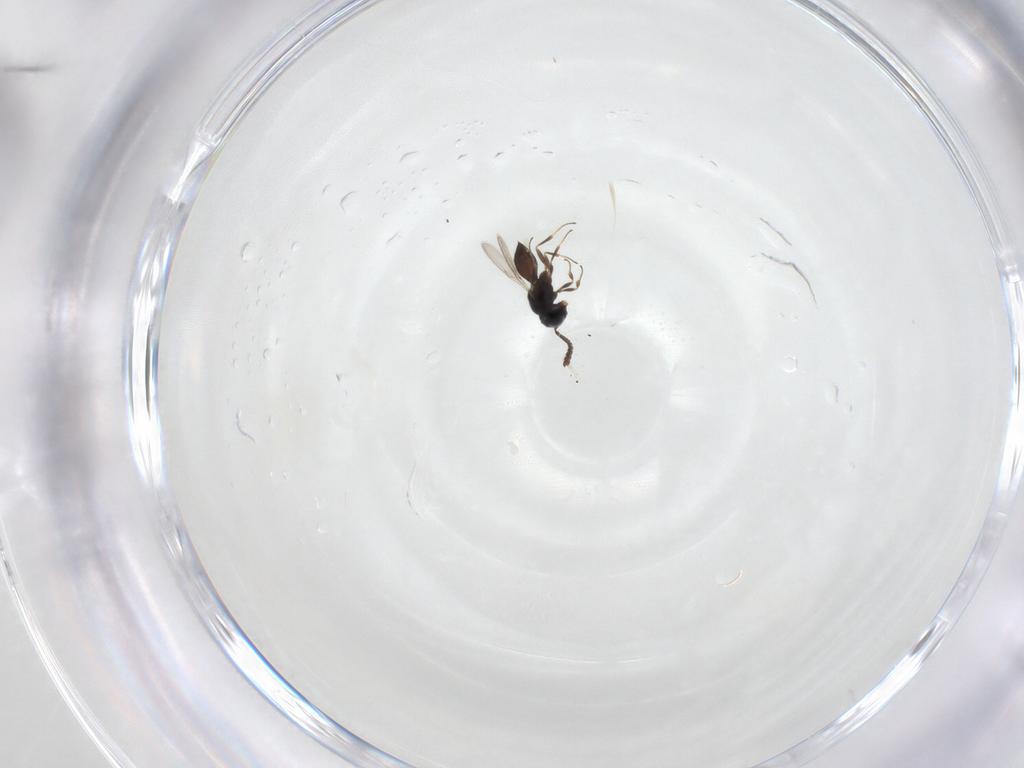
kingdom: Animalia
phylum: Arthropoda
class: Insecta
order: Hymenoptera
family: Scelionidae
